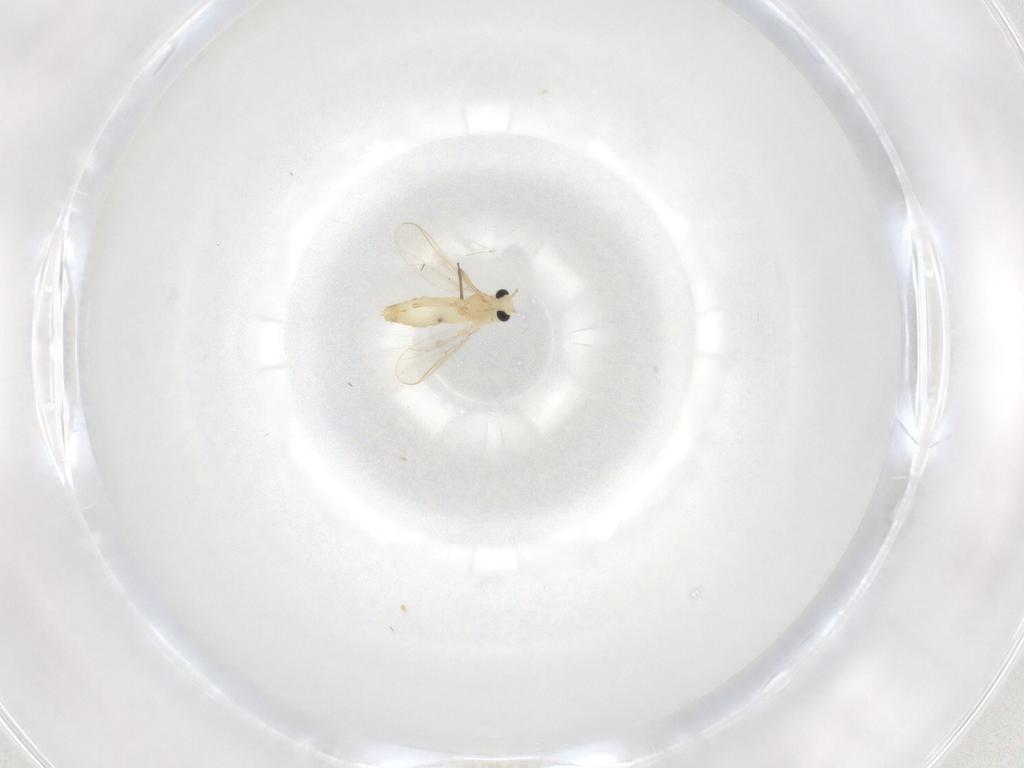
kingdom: Animalia
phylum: Arthropoda
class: Insecta
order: Diptera
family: Chironomidae
